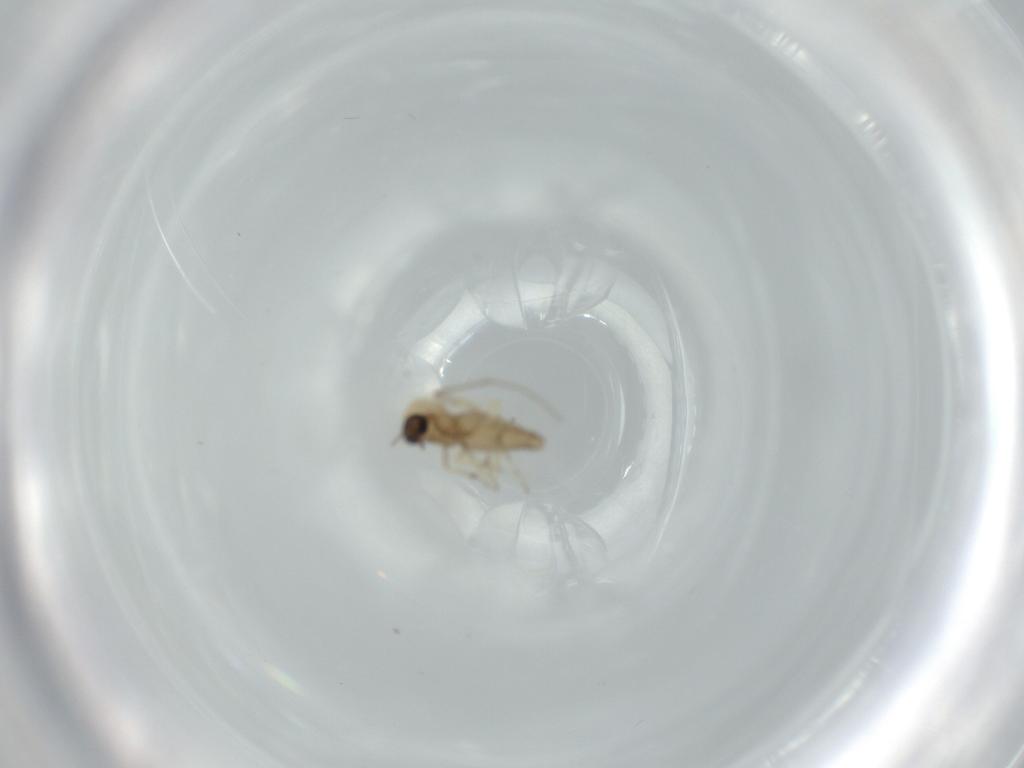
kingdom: Animalia
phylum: Arthropoda
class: Insecta
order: Diptera
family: Chironomidae
